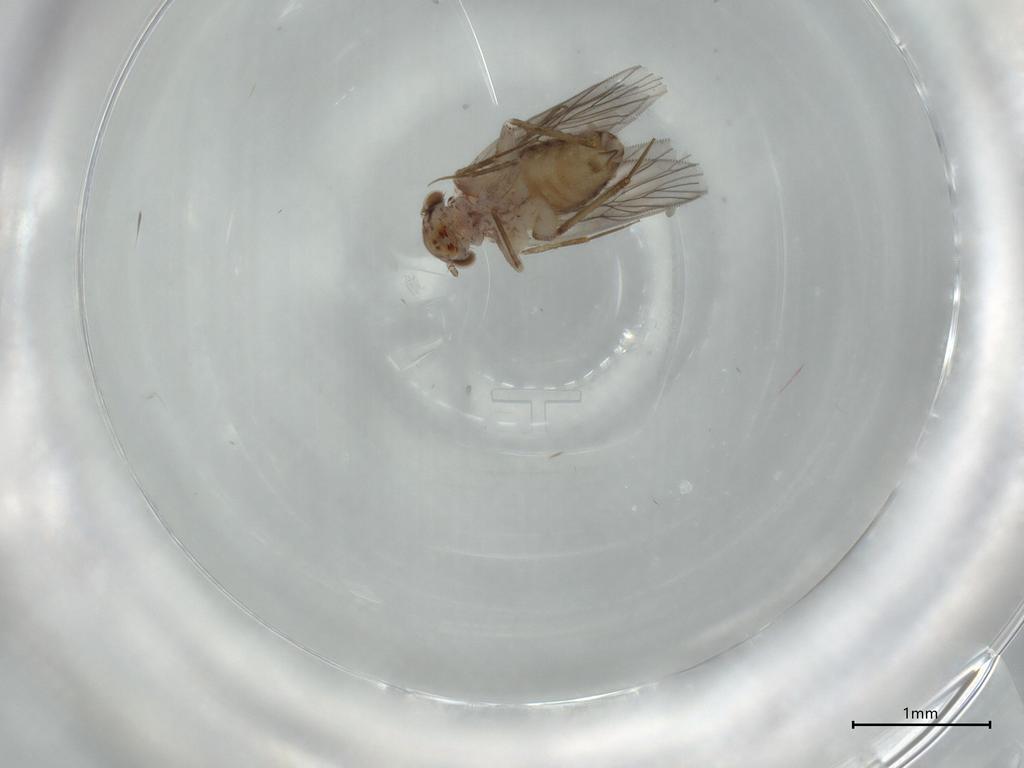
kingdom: Animalia
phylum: Arthropoda
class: Insecta
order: Psocodea
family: Lepidopsocidae
